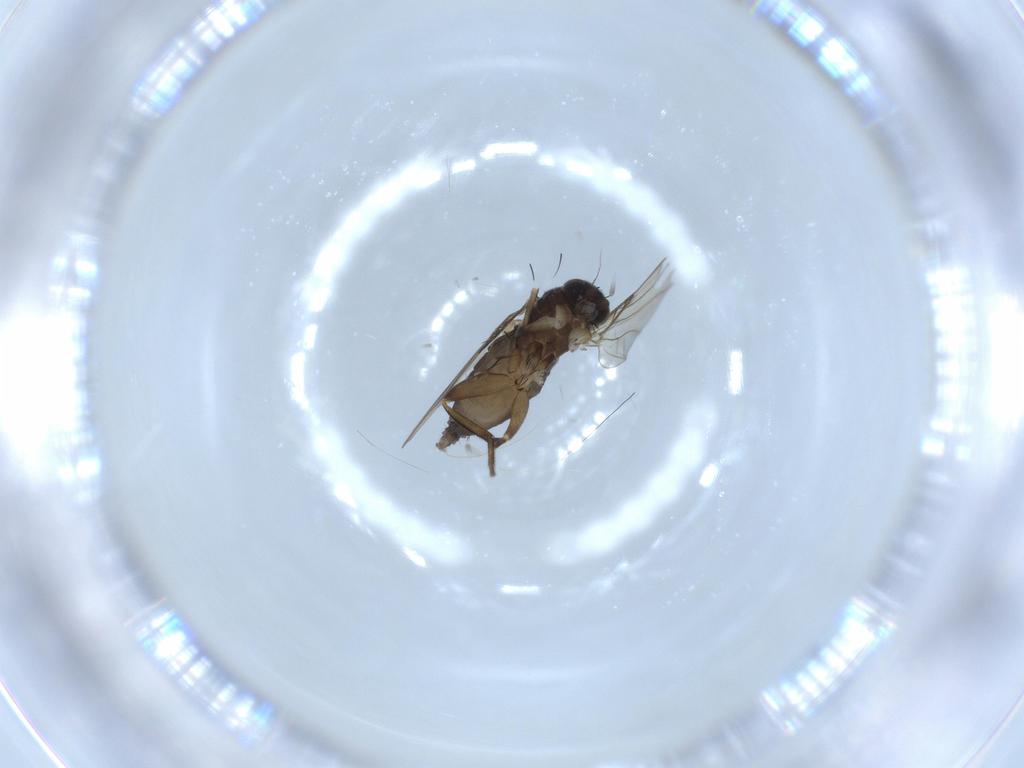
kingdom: Animalia
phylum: Arthropoda
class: Insecta
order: Diptera
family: Phoridae
